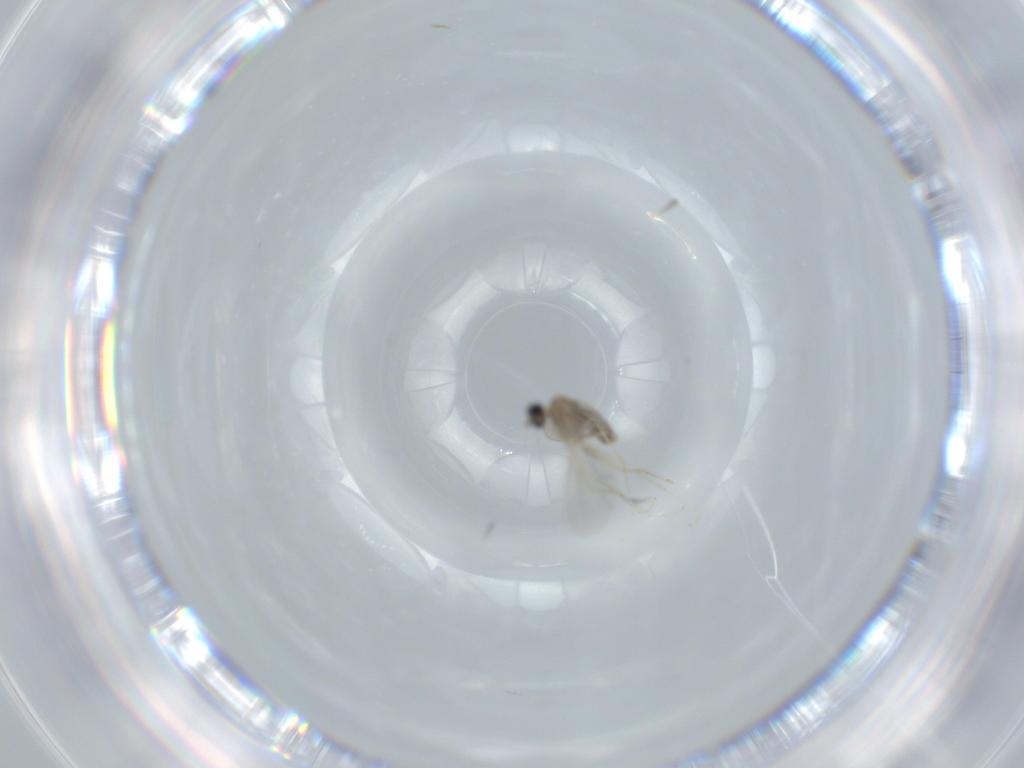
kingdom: Animalia
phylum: Arthropoda
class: Insecta
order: Diptera
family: Cecidomyiidae
